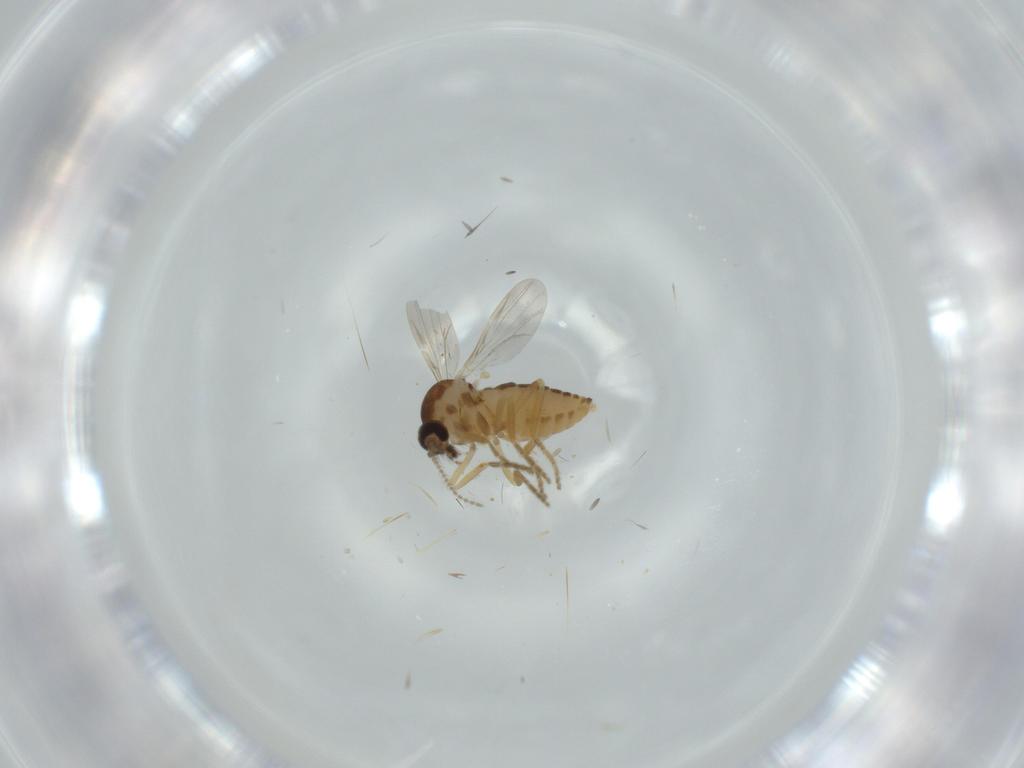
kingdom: Animalia
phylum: Arthropoda
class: Insecta
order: Diptera
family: Ceratopogonidae
